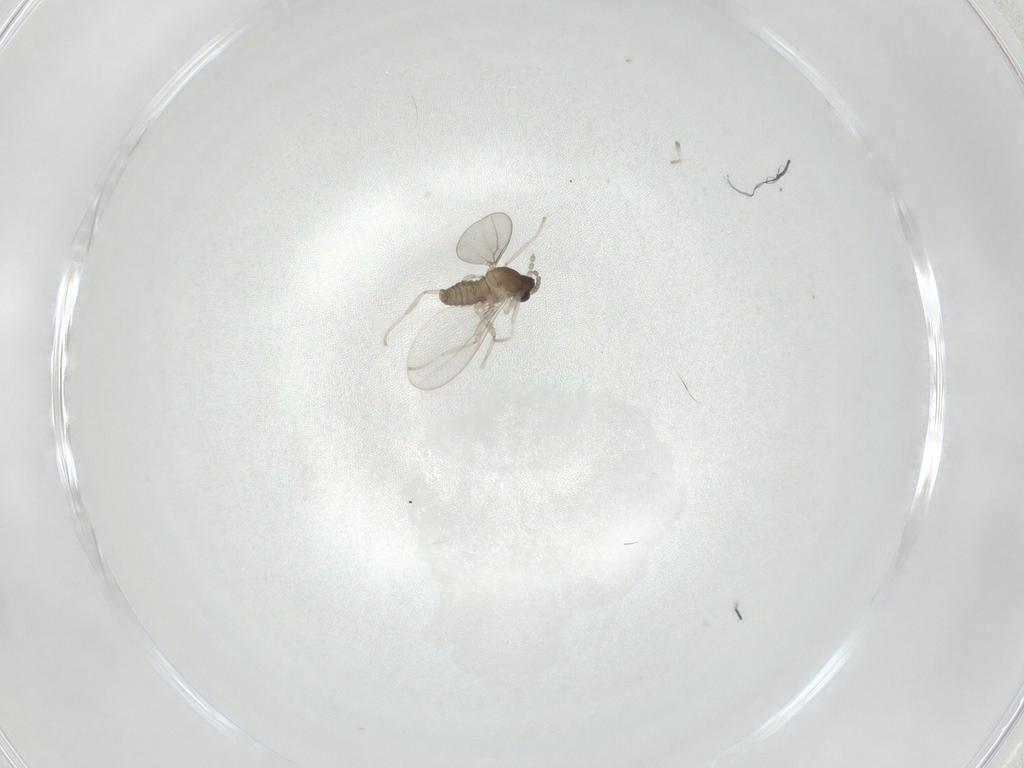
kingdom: Animalia
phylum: Arthropoda
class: Insecta
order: Diptera
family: Cecidomyiidae
